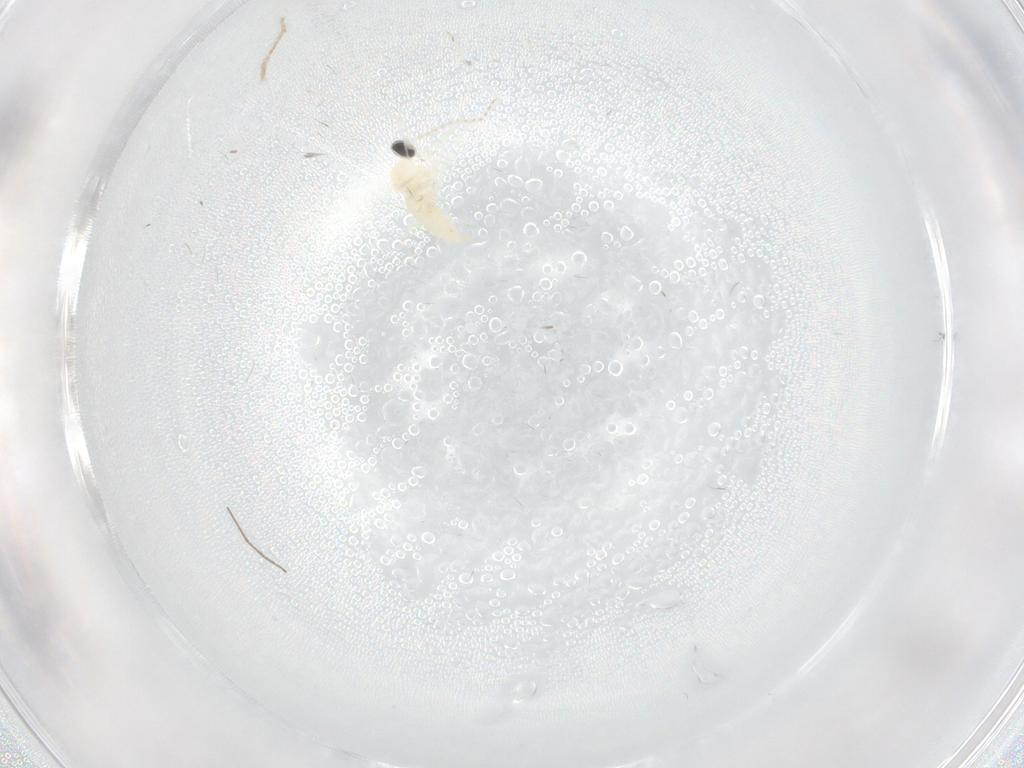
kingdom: Animalia
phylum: Arthropoda
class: Insecta
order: Diptera
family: Cecidomyiidae
